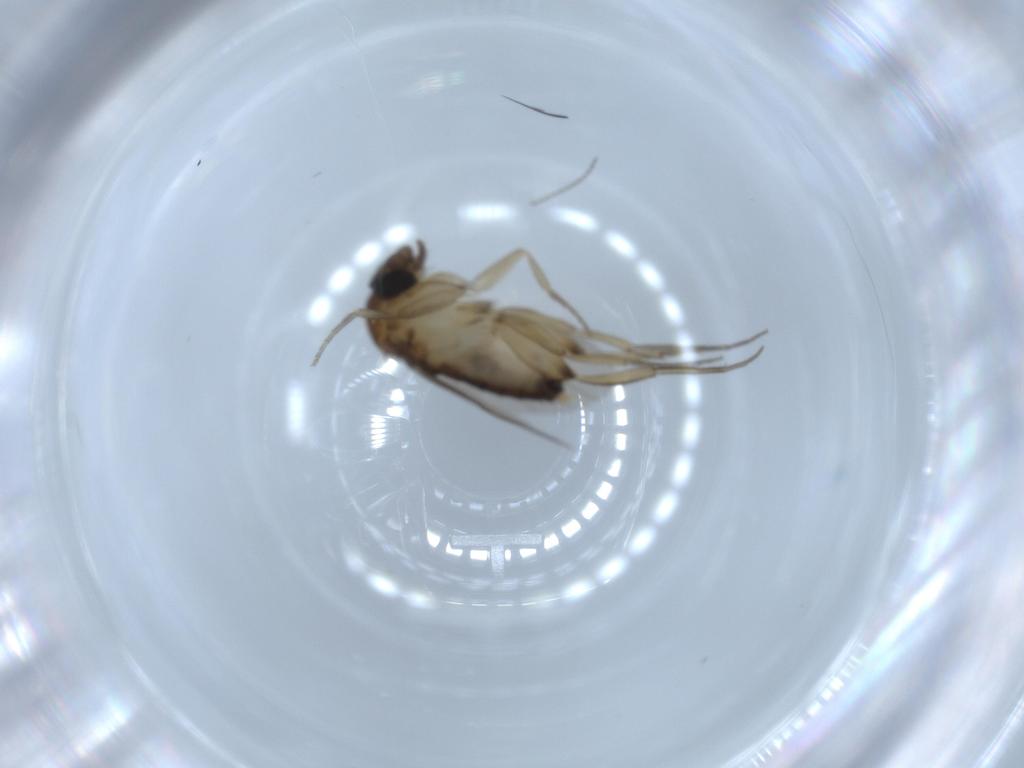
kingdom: Animalia
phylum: Arthropoda
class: Insecta
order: Diptera
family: Phoridae
